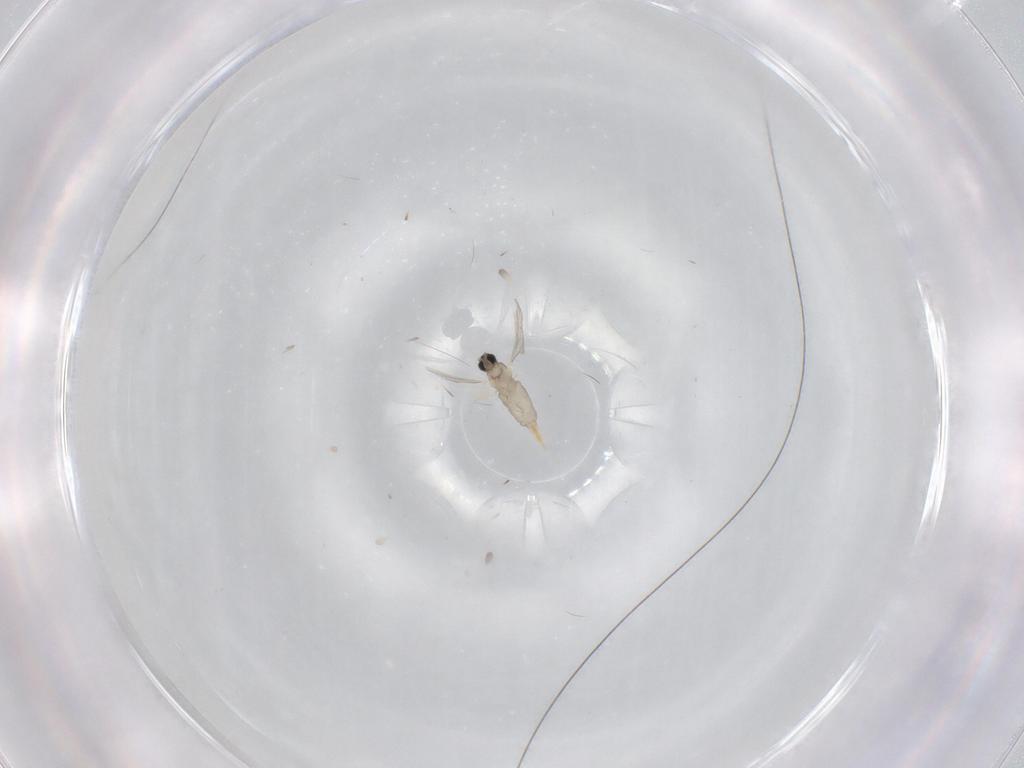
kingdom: Animalia
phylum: Arthropoda
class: Insecta
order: Diptera
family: Cecidomyiidae
